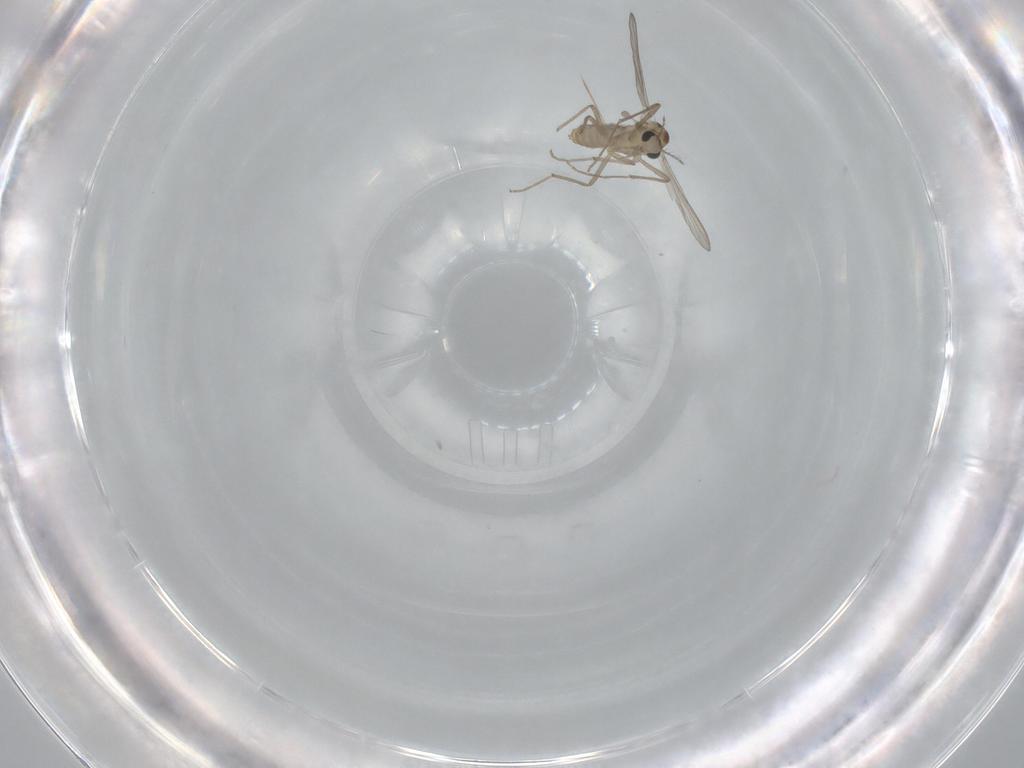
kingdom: Animalia
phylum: Arthropoda
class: Insecta
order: Diptera
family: Chironomidae
